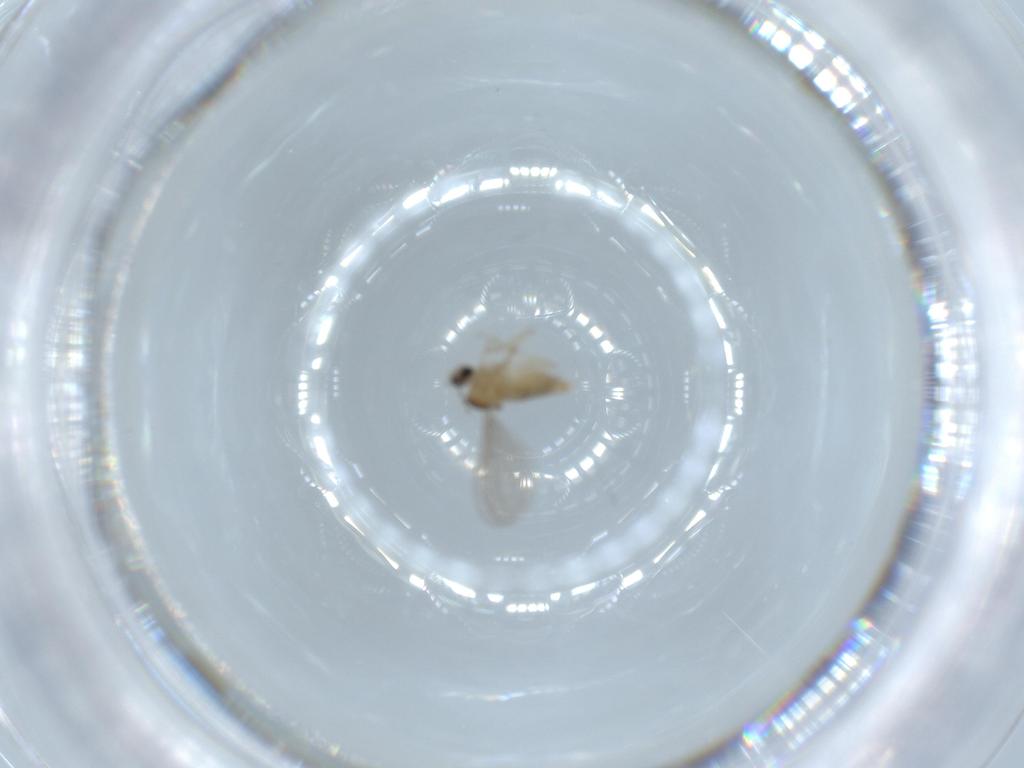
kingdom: Animalia
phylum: Arthropoda
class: Insecta
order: Diptera
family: Cecidomyiidae
